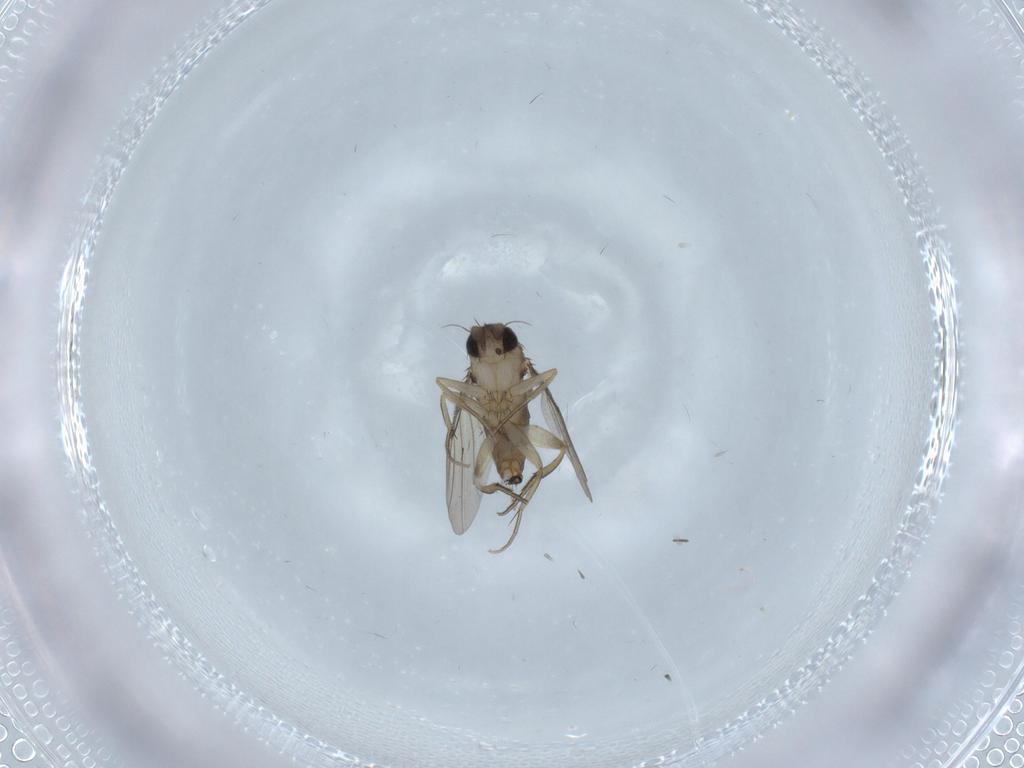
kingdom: Animalia
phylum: Arthropoda
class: Insecta
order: Diptera
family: Phoridae
